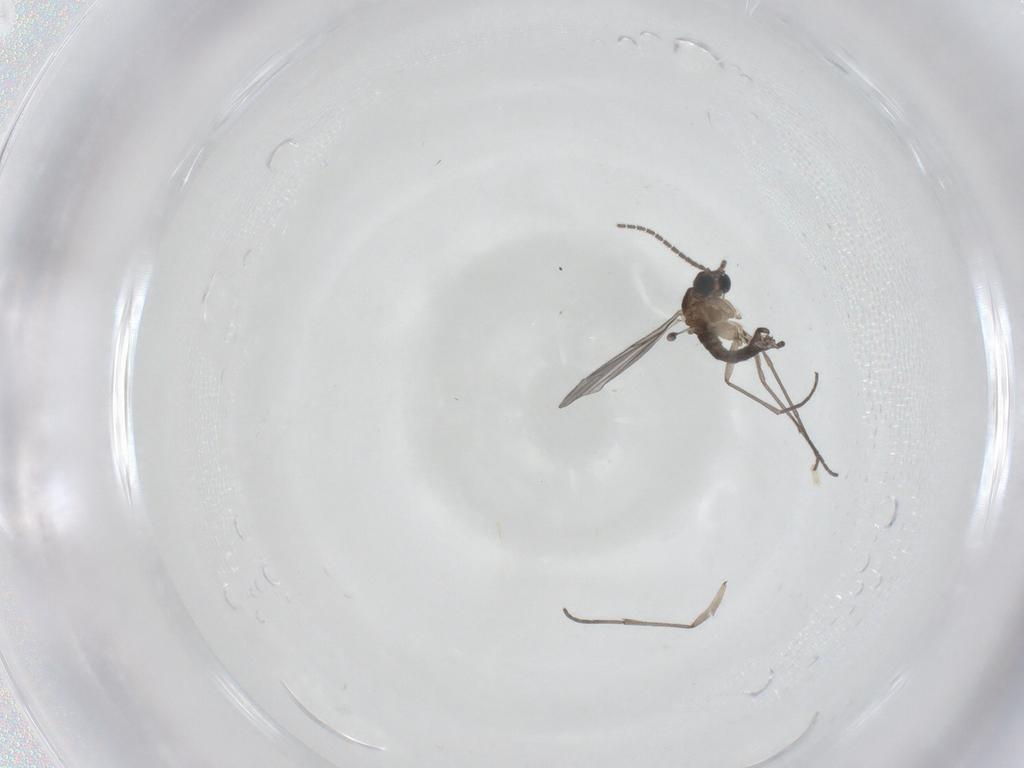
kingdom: Animalia
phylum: Arthropoda
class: Insecta
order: Diptera
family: Sciaridae
